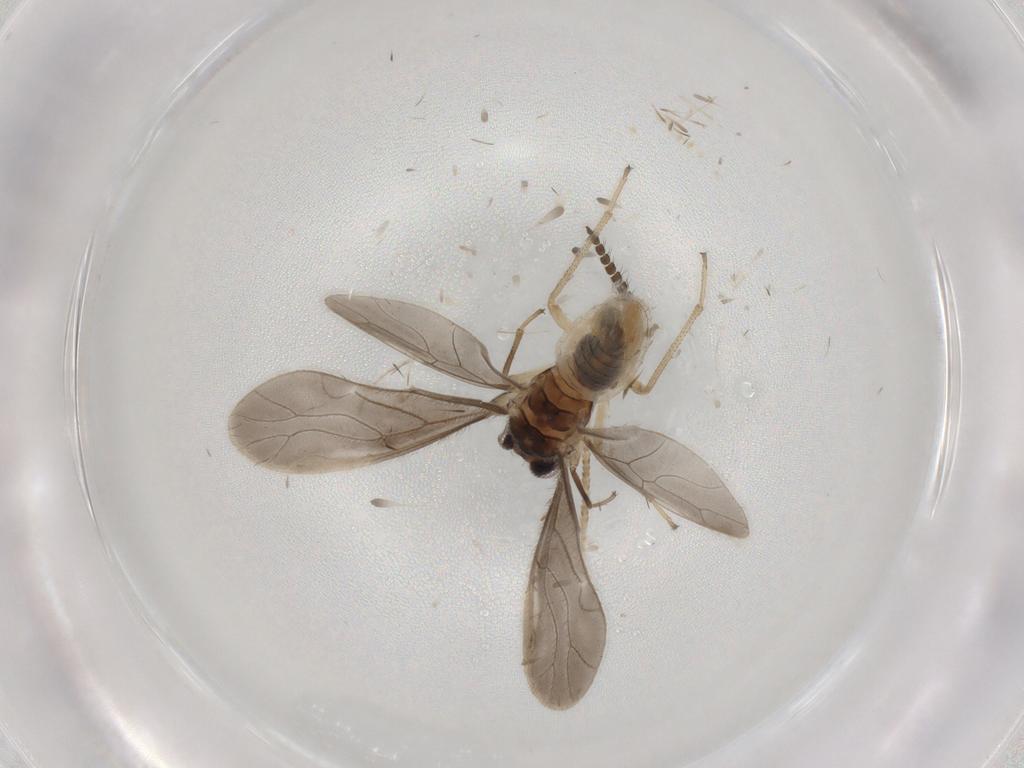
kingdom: Animalia
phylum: Arthropoda
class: Insecta
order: Psocodea
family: Caeciliusidae
